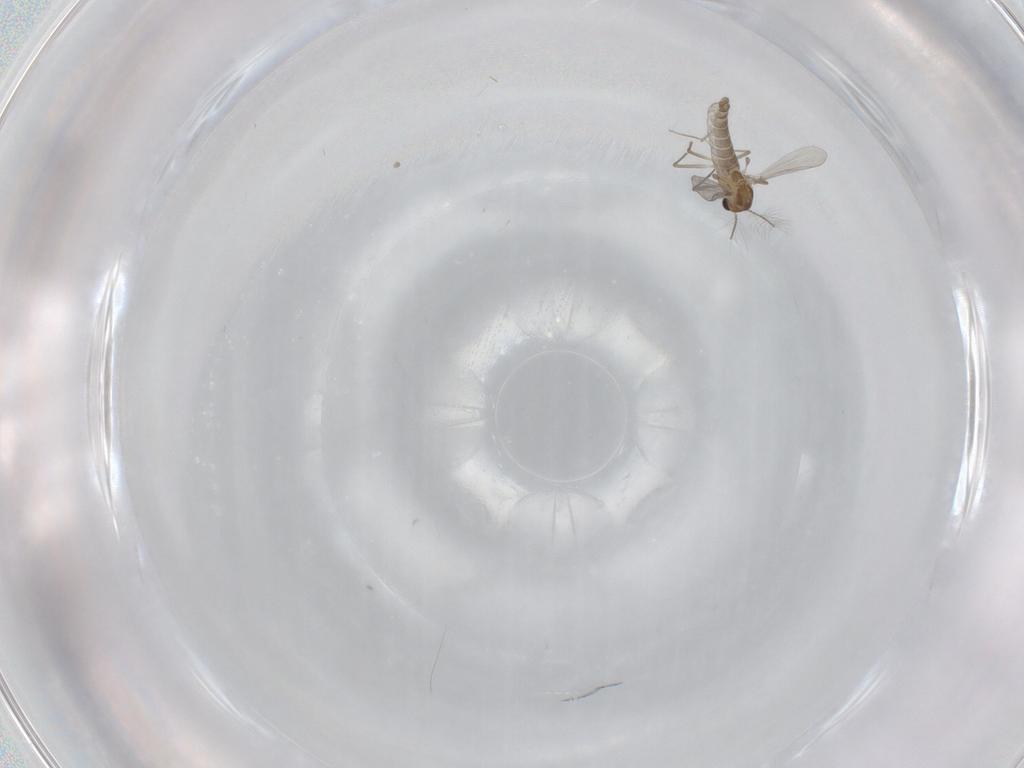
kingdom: Animalia
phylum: Arthropoda
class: Insecta
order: Diptera
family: Chironomidae
